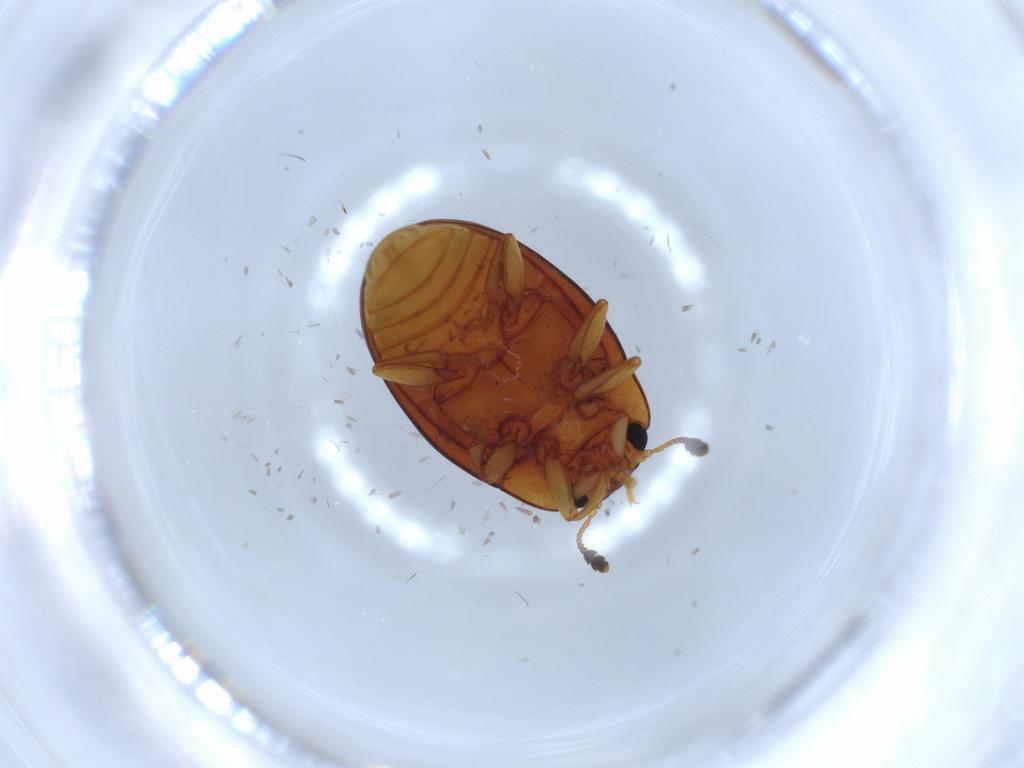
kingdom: Animalia
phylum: Arthropoda
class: Insecta
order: Coleoptera
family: Erotylidae
